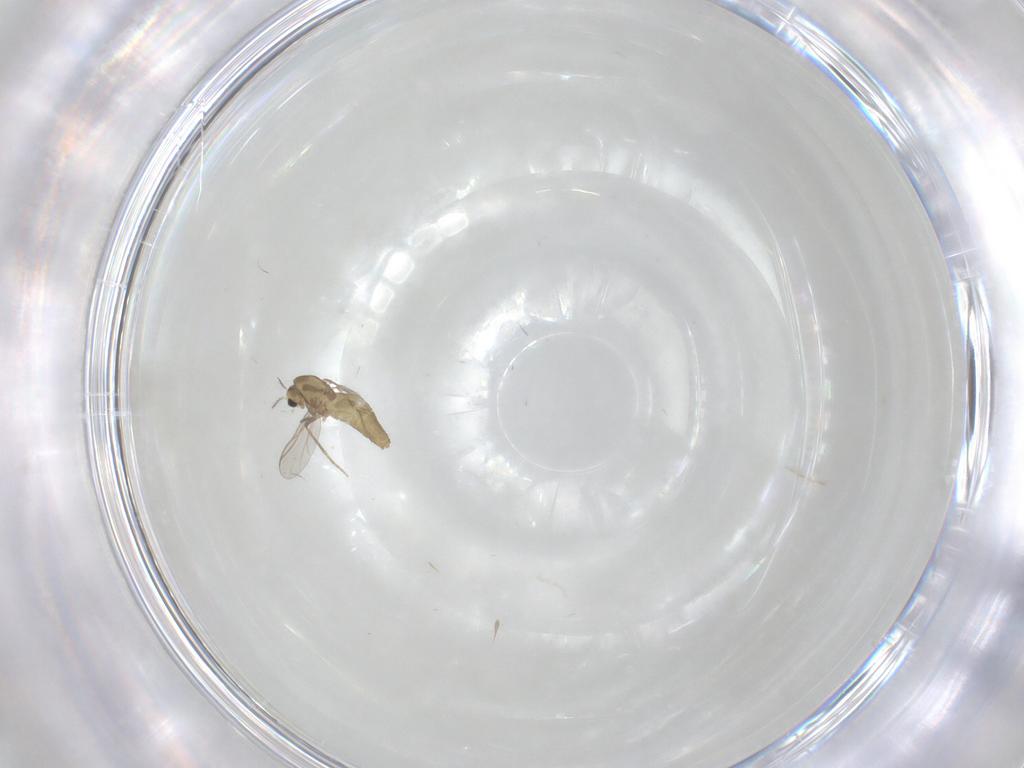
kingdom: Animalia
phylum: Arthropoda
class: Insecta
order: Diptera
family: Chironomidae
